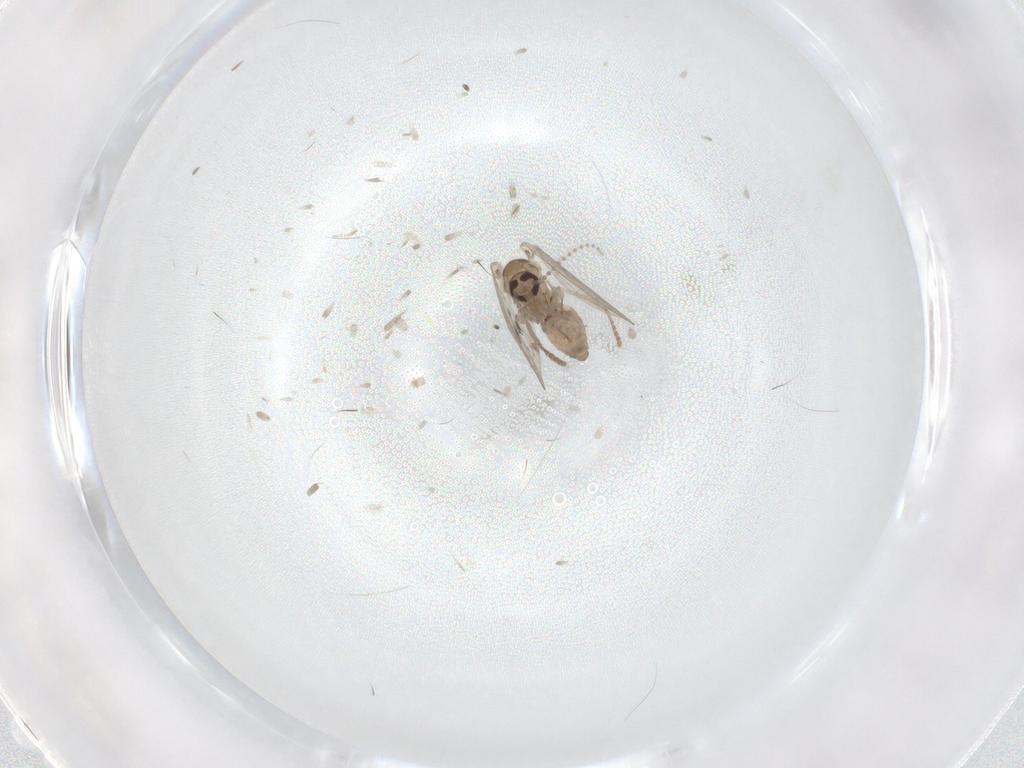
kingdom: Animalia
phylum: Arthropoda
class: Insecta
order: Diptera
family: Psychodidae
